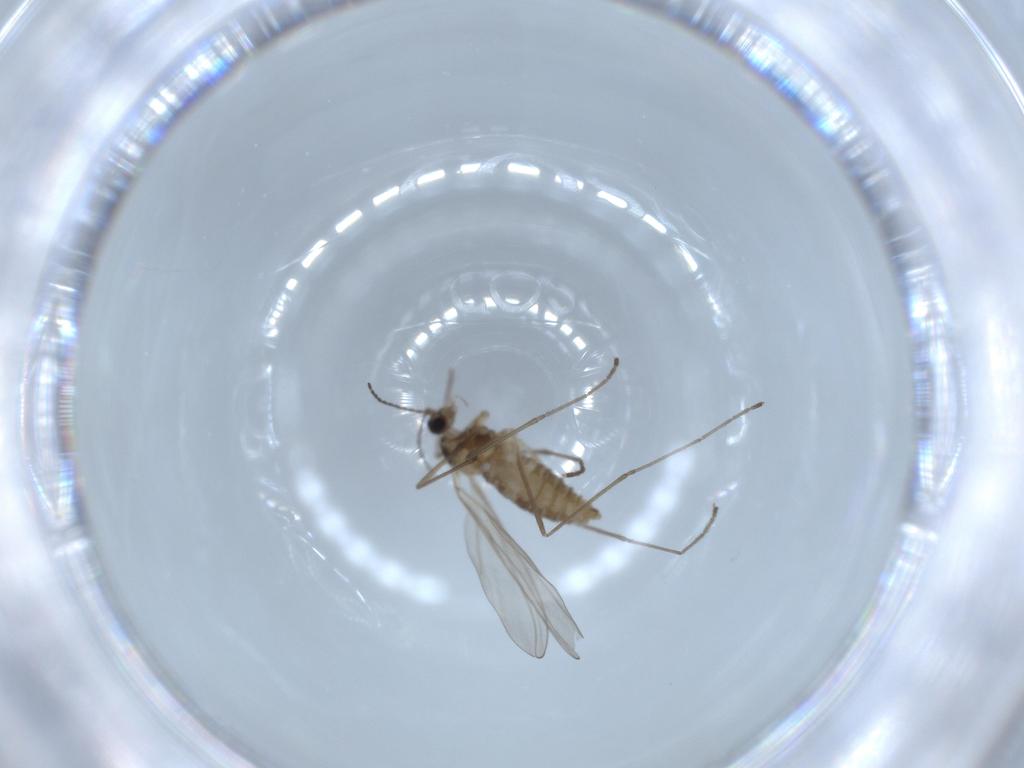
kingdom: Animalia
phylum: Arthropoda
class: Insecta
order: Diptera
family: Cecidomyiidae
